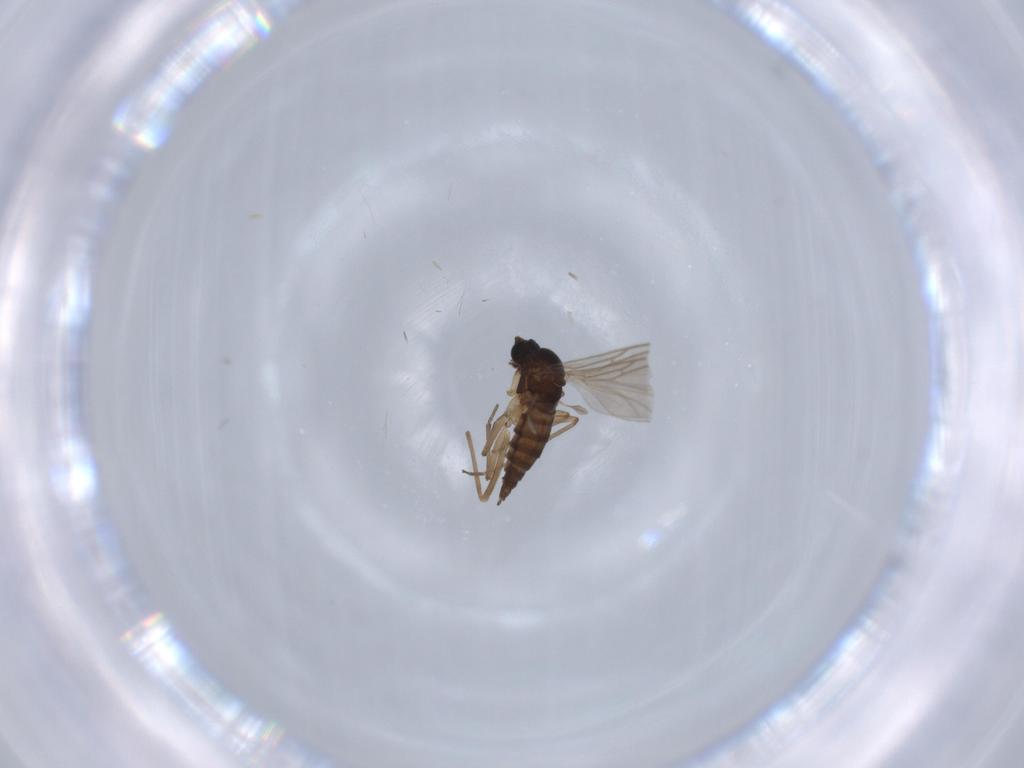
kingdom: Animalia
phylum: Arthropoda
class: Insecta
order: Diptera
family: Chironomidae
